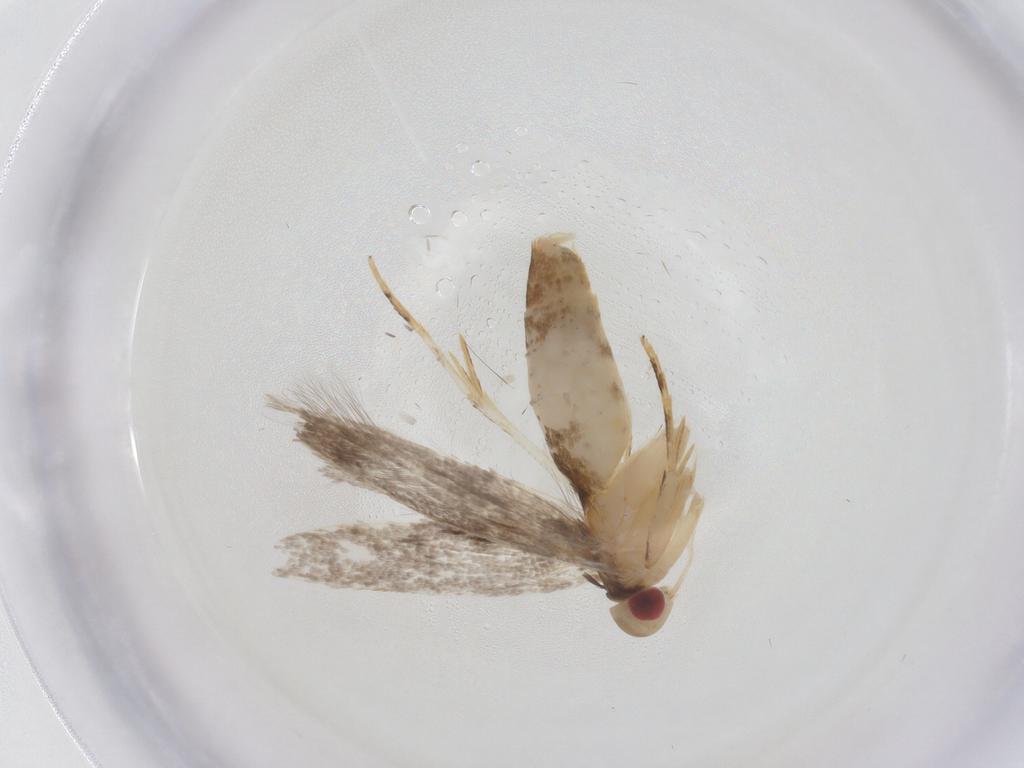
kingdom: Animalia
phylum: Arthropoda
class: Insecta
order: Lepidoptera
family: Cosmopterigidae
